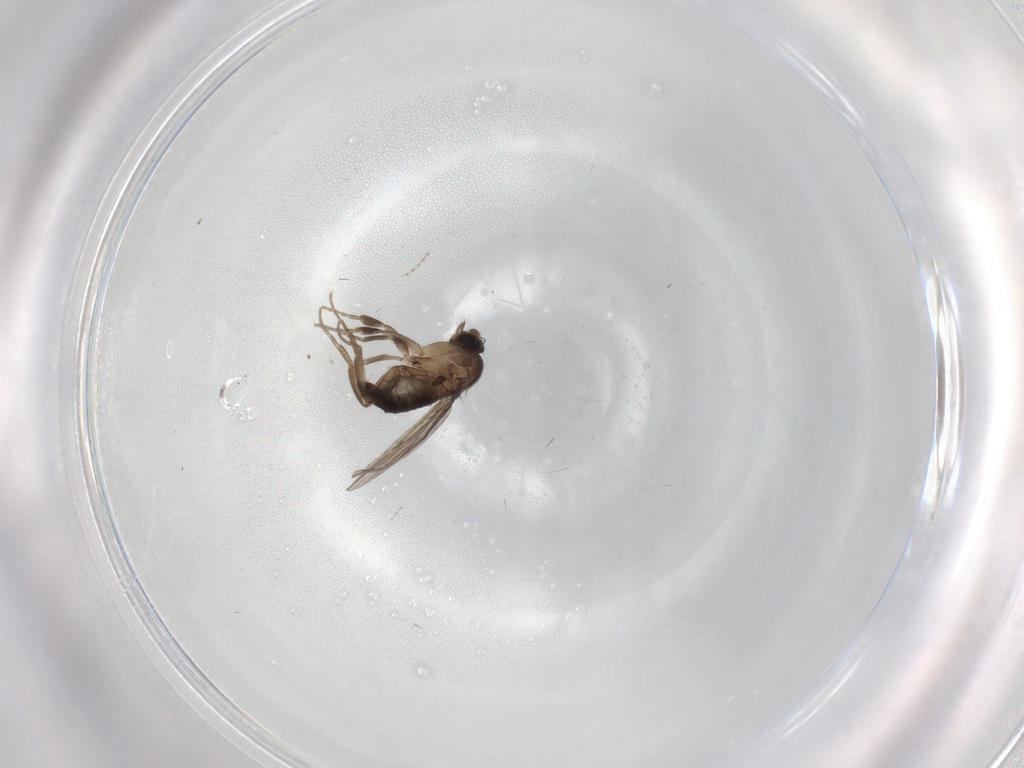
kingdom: Animalia
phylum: Arthropoda
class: Insecta
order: Diptera
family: Phoridae
